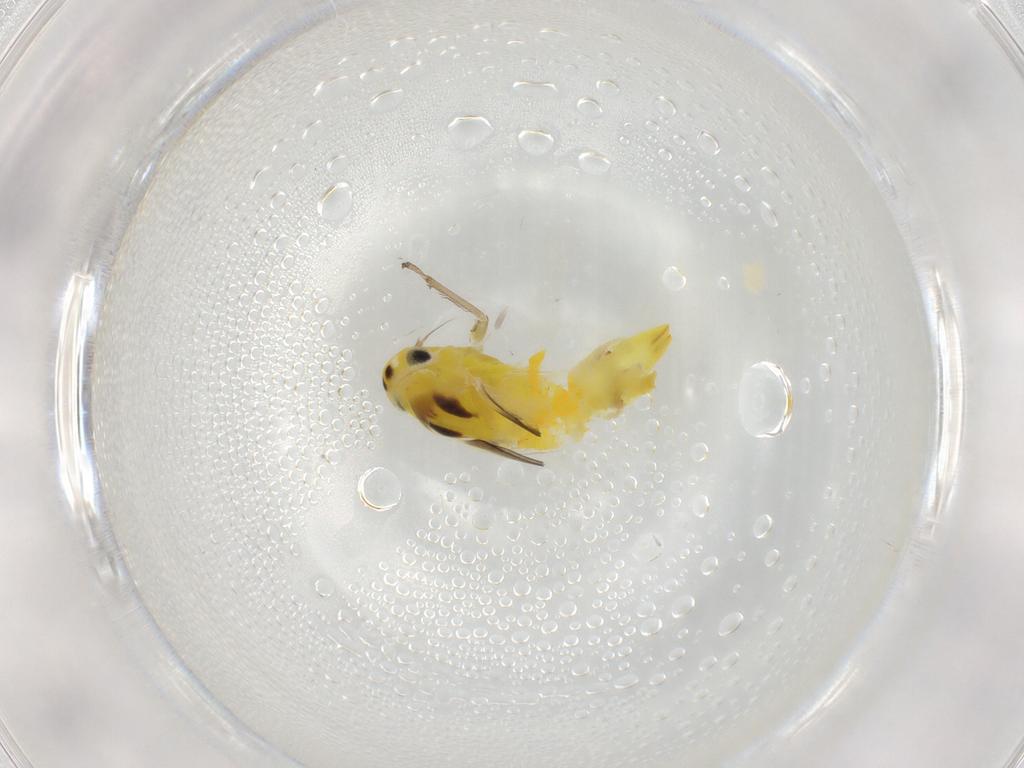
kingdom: Animalia
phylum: Arthropoda
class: Insecta
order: Hemiptera
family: Cicadellidae
